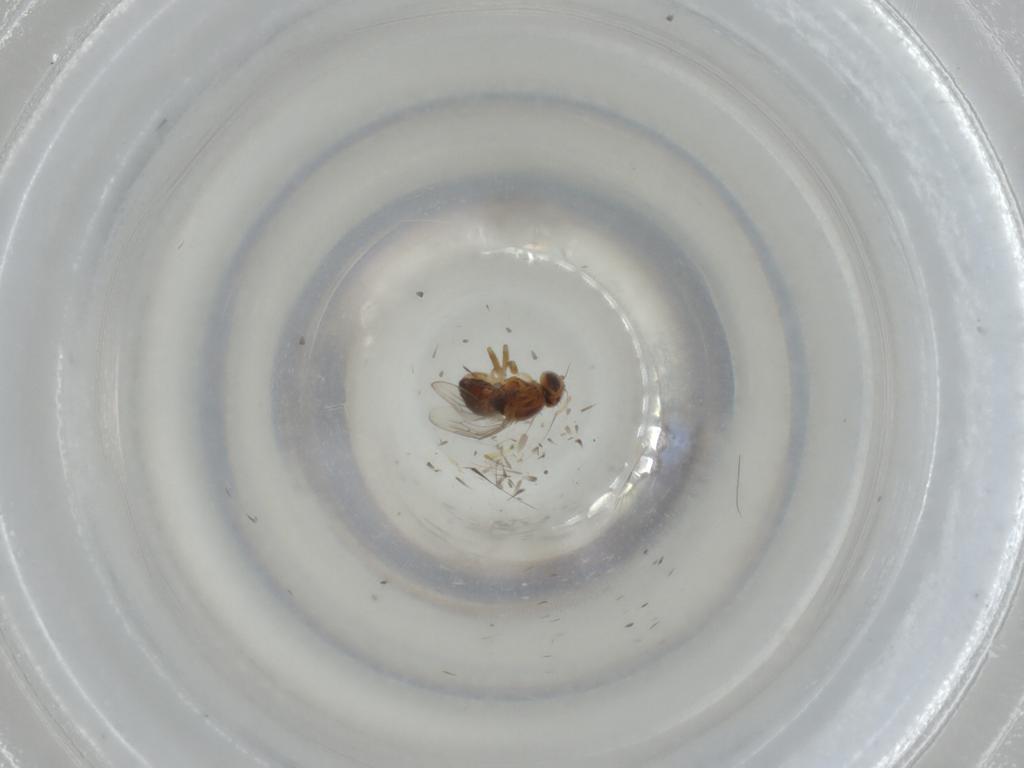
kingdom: Animalia
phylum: Arthropoda
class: Insecta
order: Diptera
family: Chloropidae
